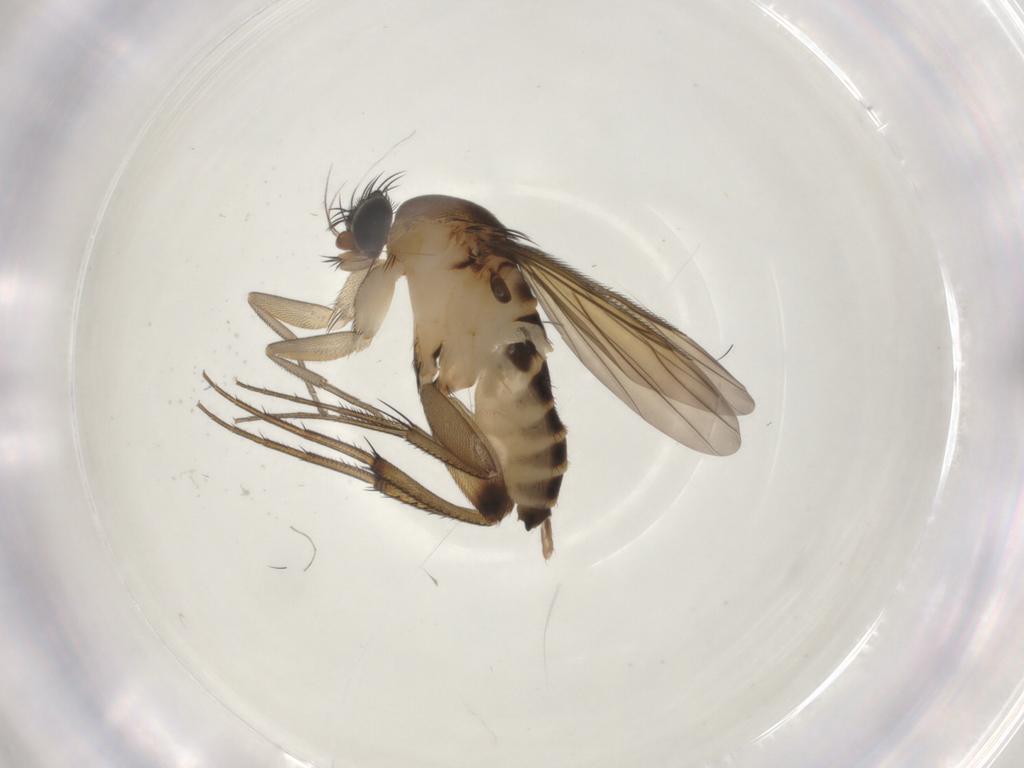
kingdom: Animalia
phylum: Arthropoda
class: Insecta
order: Diptera
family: Phoridae
